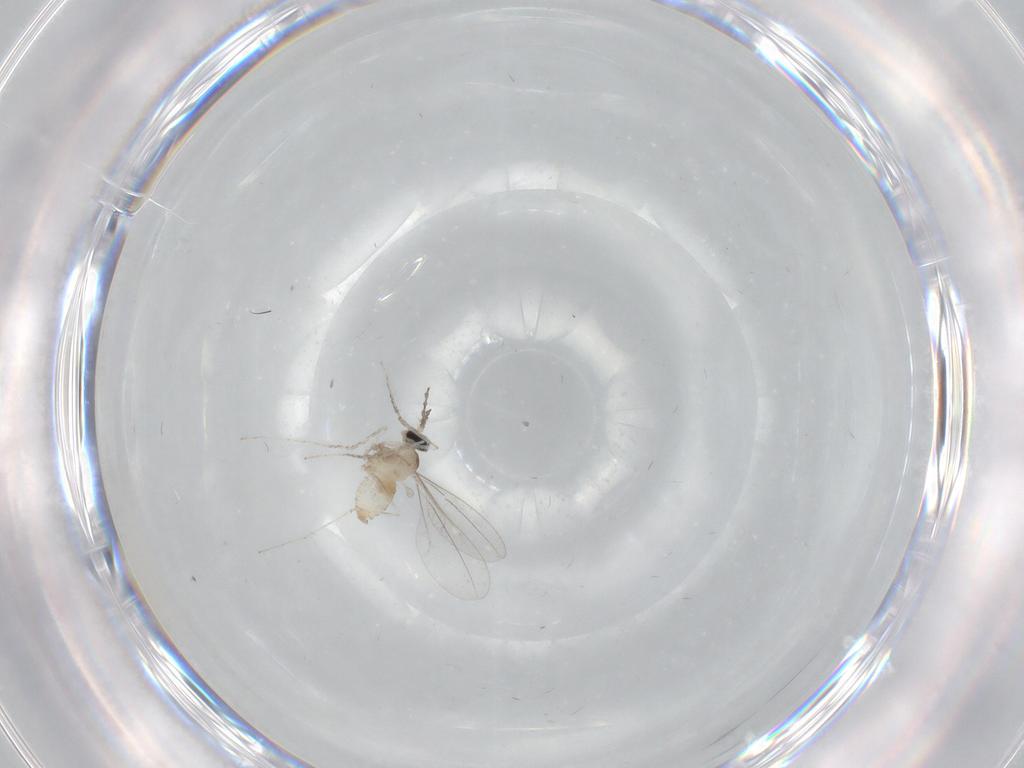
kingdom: Animalia
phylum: Arthropoda
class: Insecta
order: Diptera
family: Cecidomyiidae
